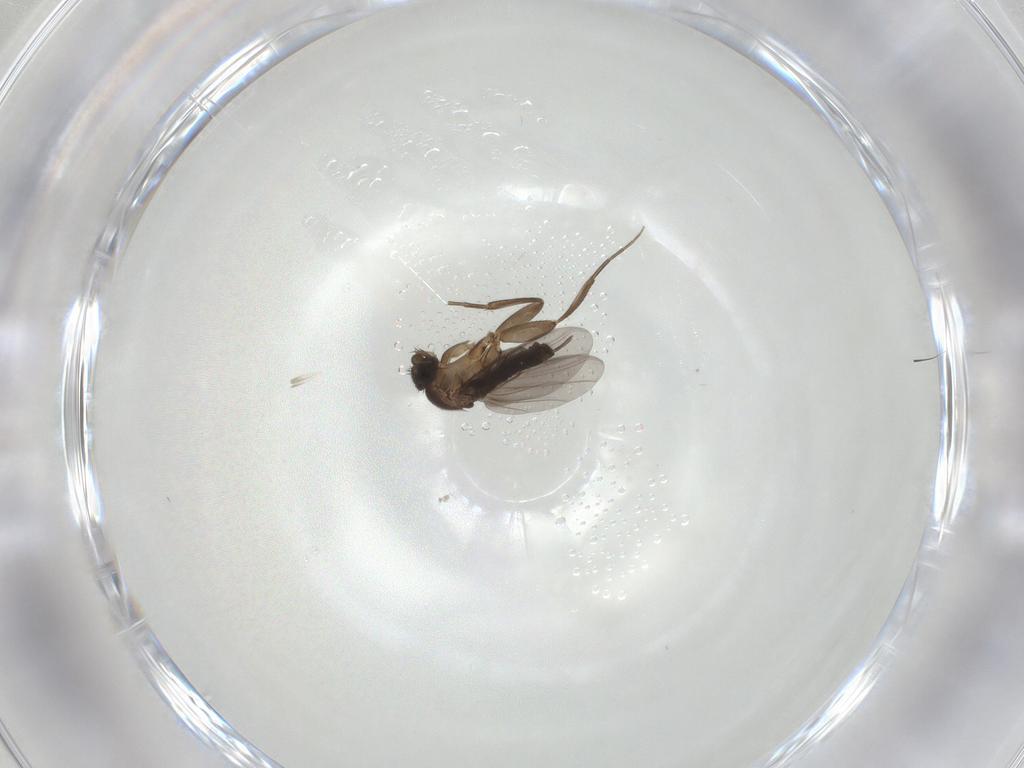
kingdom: Animalia
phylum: Arthropoda
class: Insecta
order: Diptera
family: Phoridae
